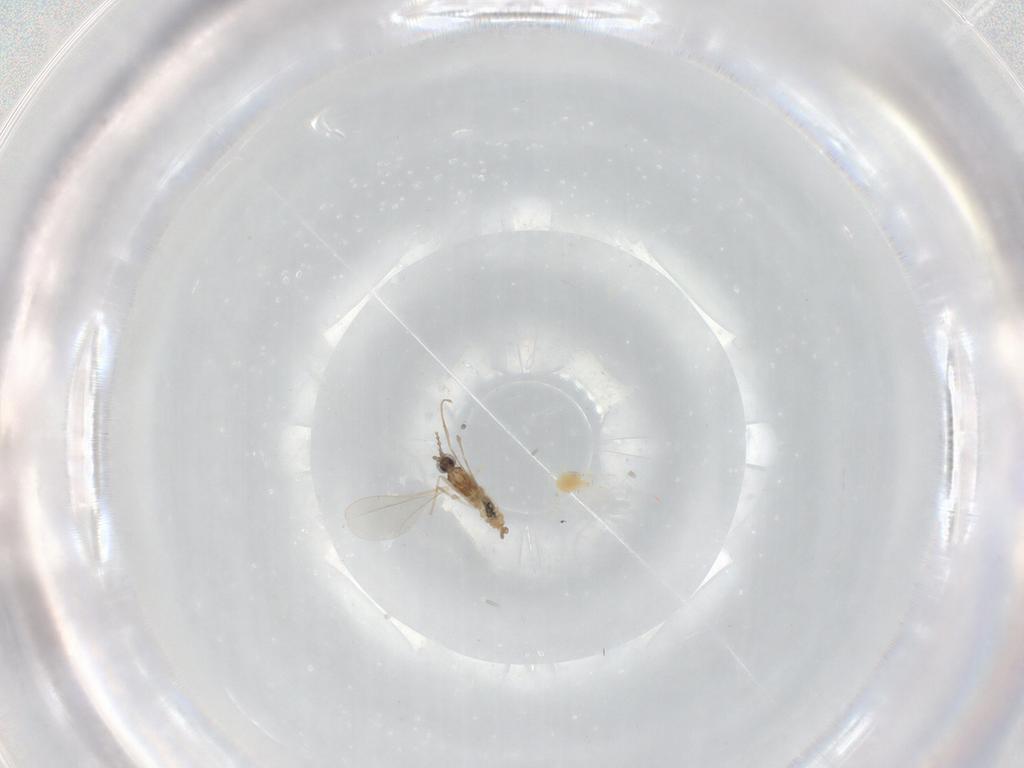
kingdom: Animalia
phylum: Arthropoda
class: Insecta
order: Diptera
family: Cecidomyiidae
